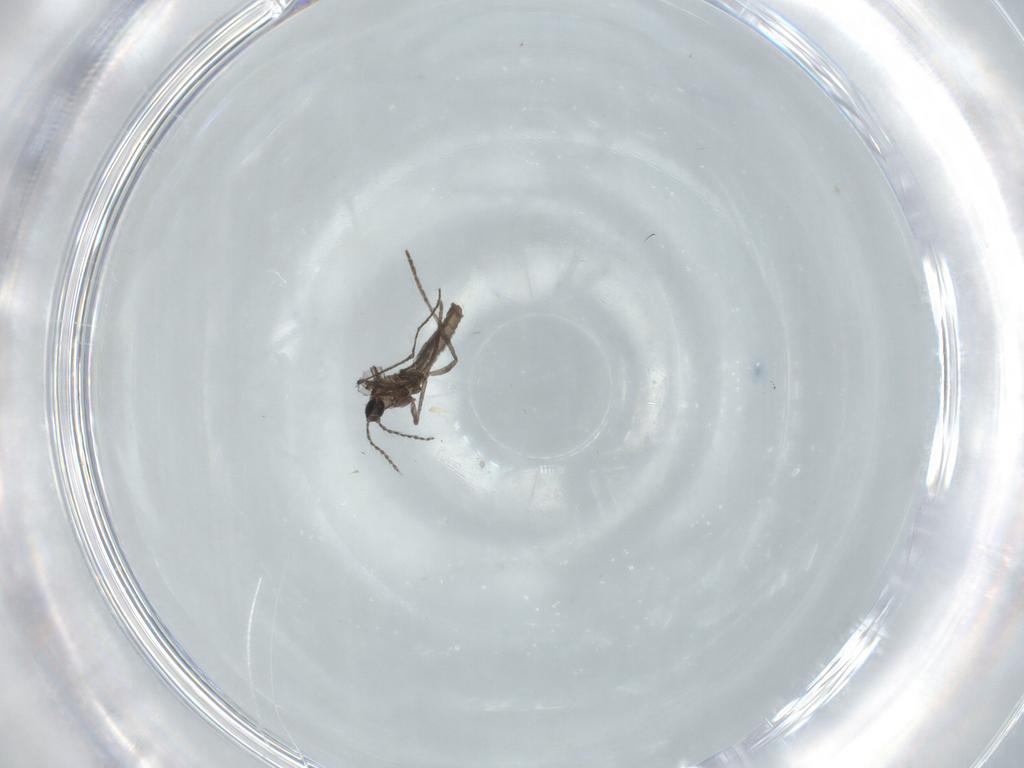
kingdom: Animalia
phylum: Arthropoda
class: Insecta
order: Diptera
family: Cecidomyiidae
